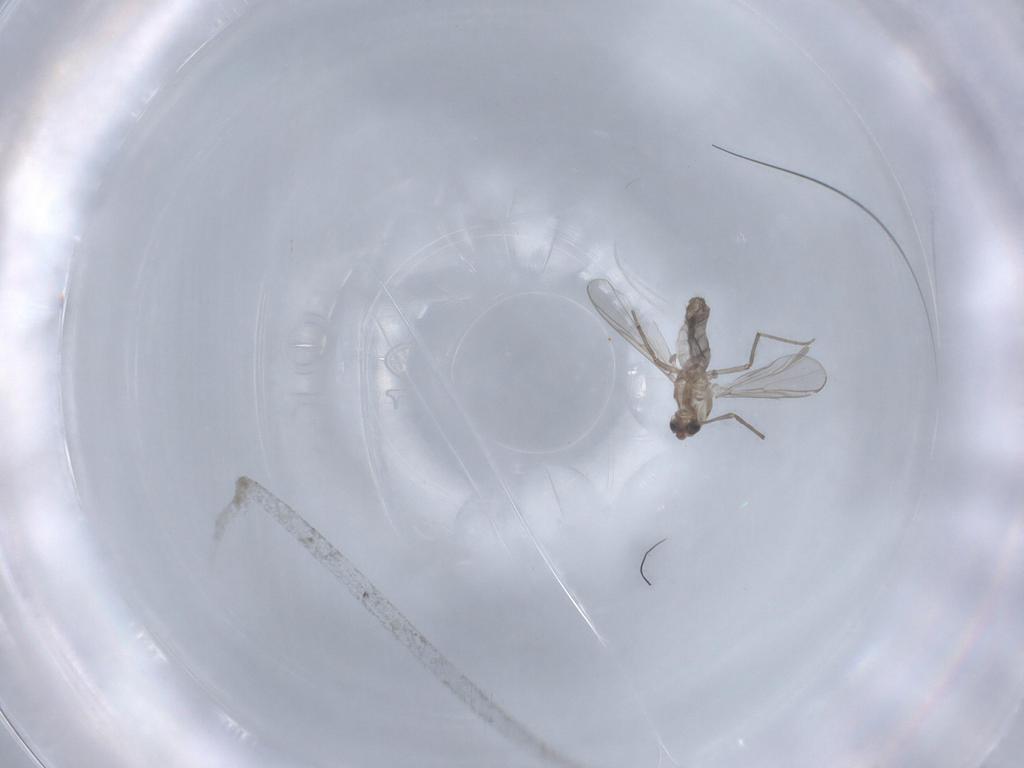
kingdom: Animalia
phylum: Arthropoda
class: Insecta
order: Diptera
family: Chironomidae
